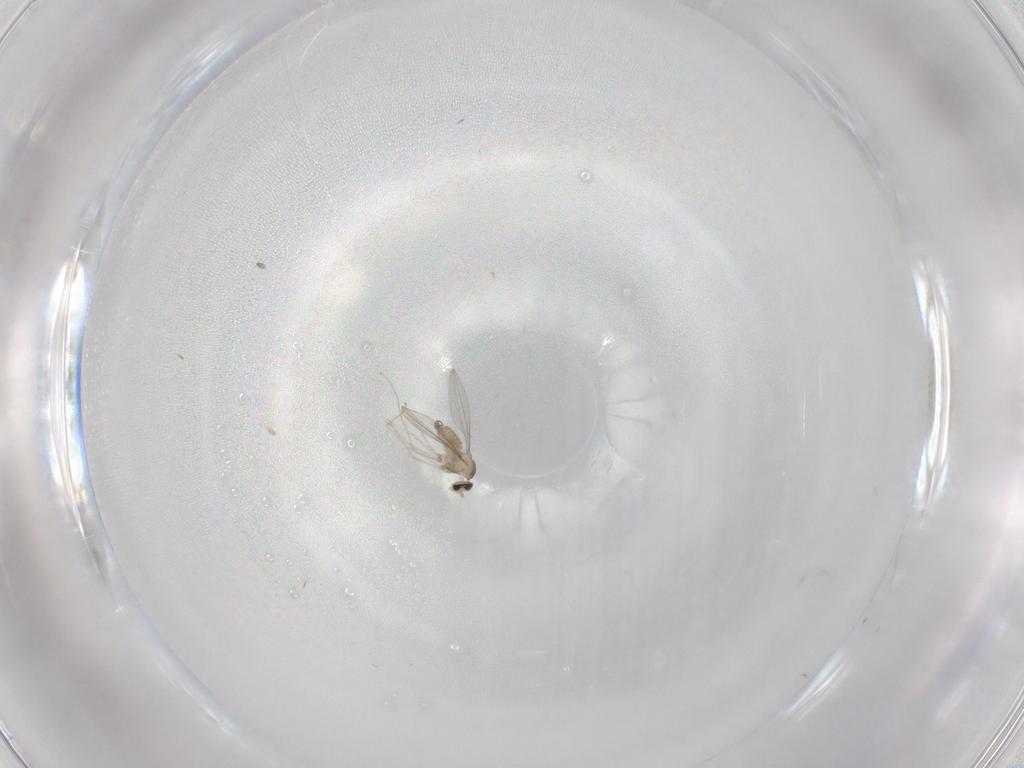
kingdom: Animalia
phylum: Arthropoda
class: Insecta
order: Diptera
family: Cecidomyiidae
